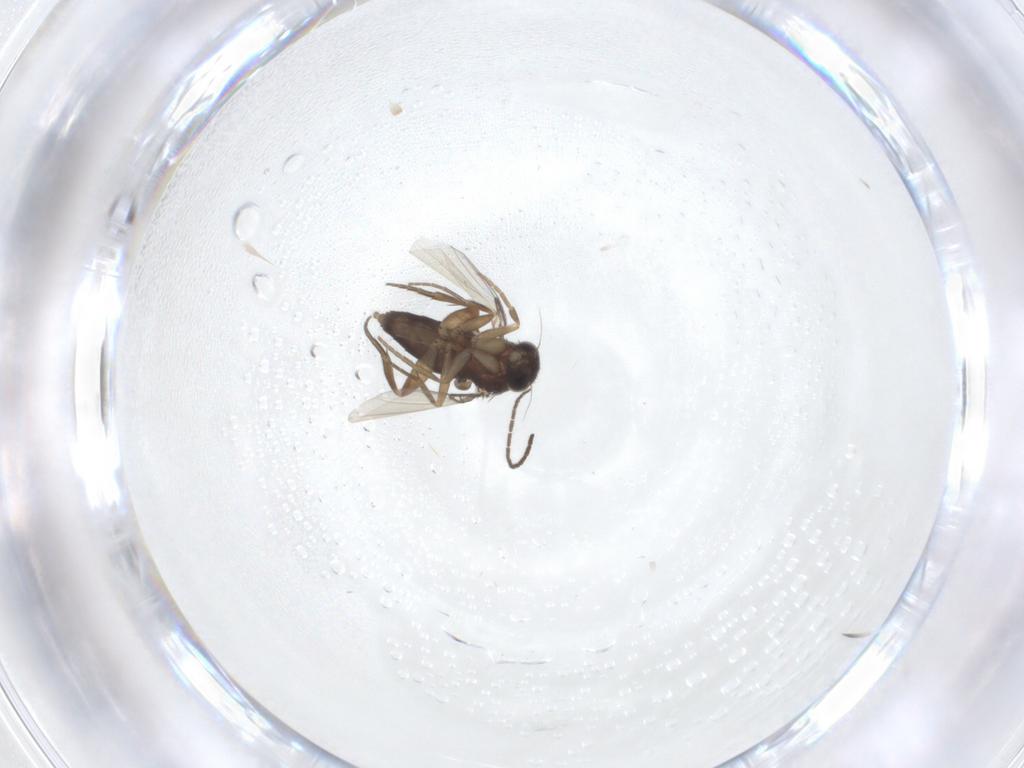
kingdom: Animalia
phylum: Arthropoda
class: Insecta
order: Diptera
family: Phoridae
